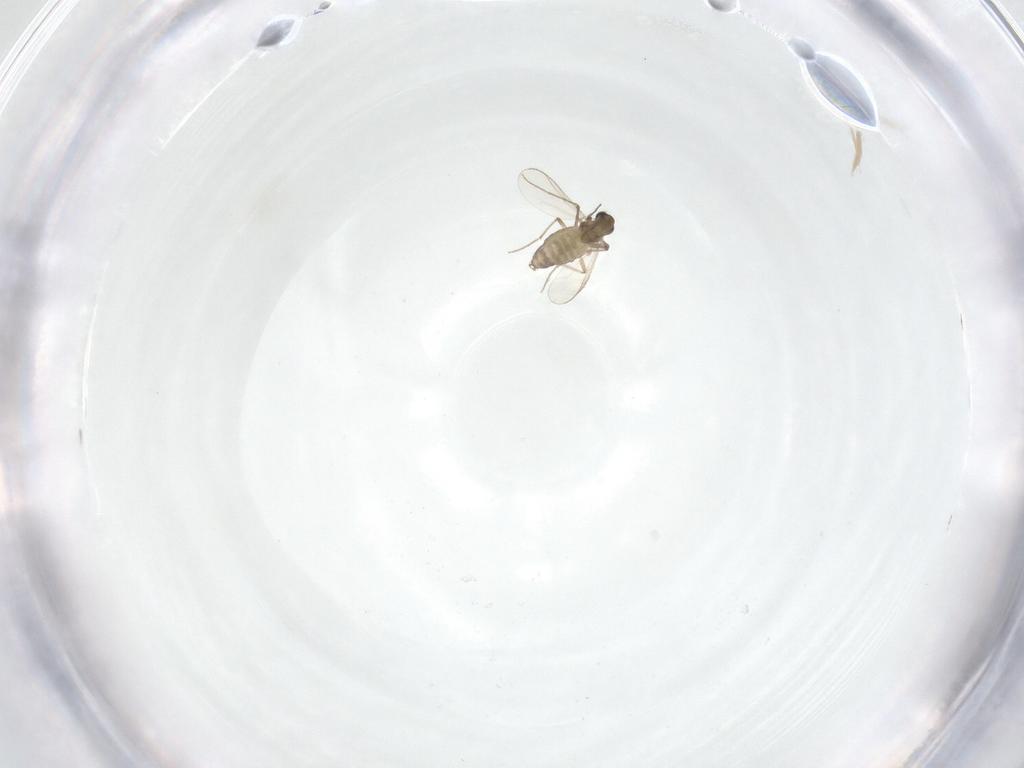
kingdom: Animalia
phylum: Arthropoda
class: Insecta
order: Diptera
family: Chironomidae
